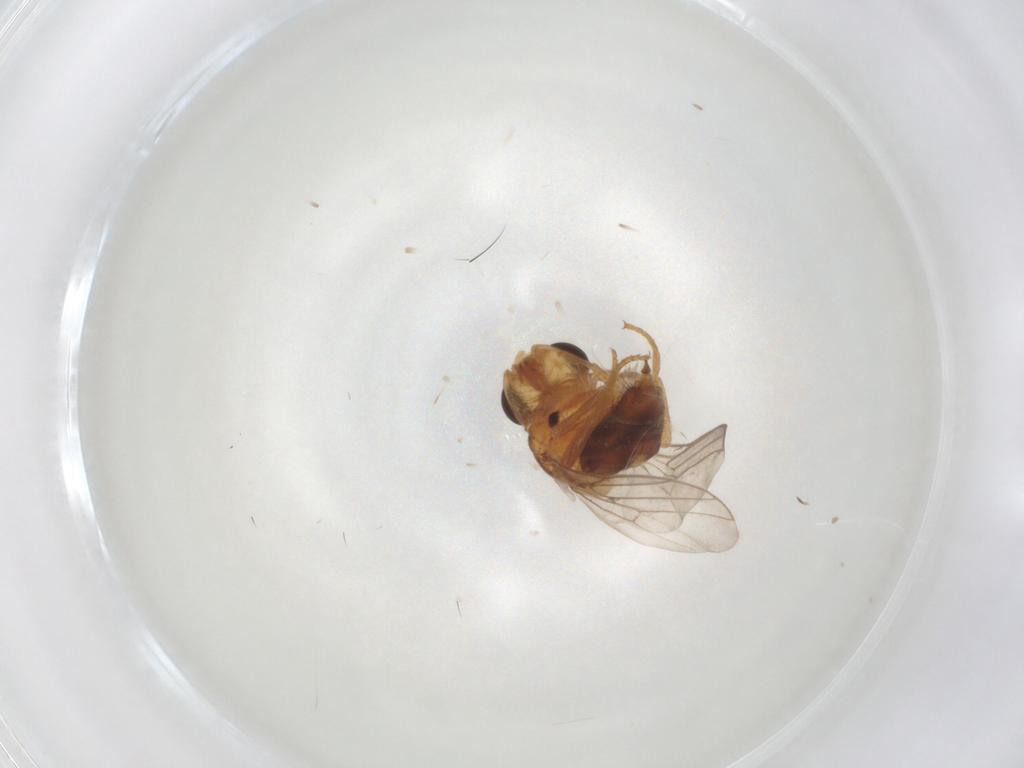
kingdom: Animalia
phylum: Arthropoda
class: Insecta
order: Diptera
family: Chloropidae
